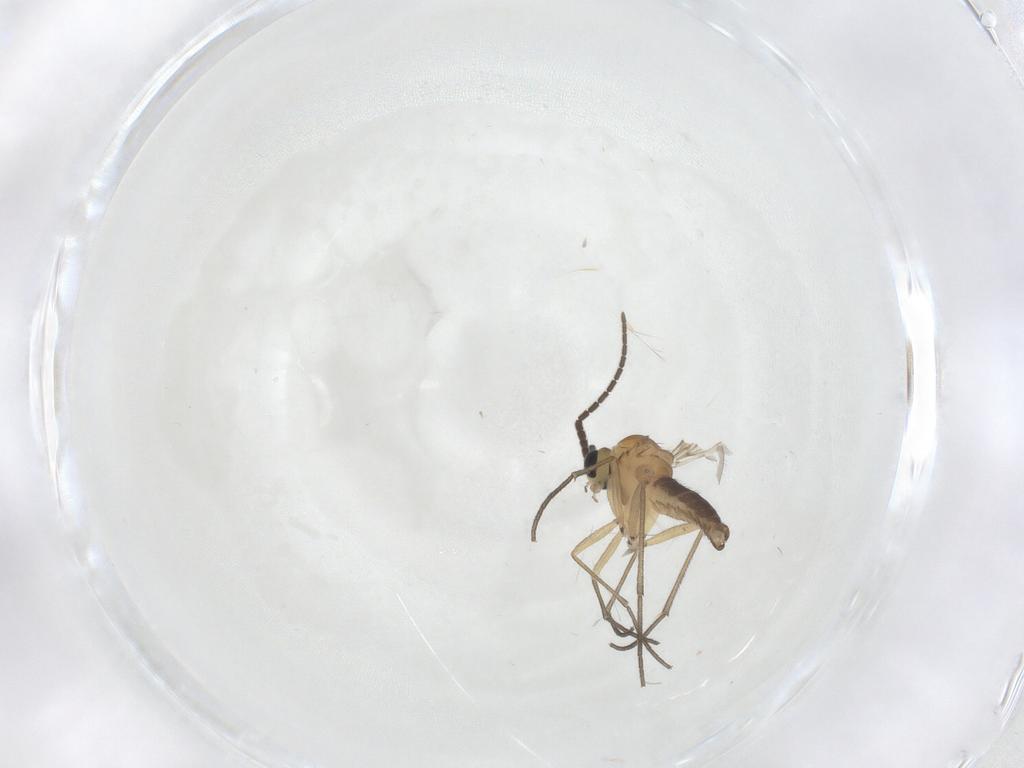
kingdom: Animalia
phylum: Arthropoda
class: Insecta
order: Diptera
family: Sciaridae
